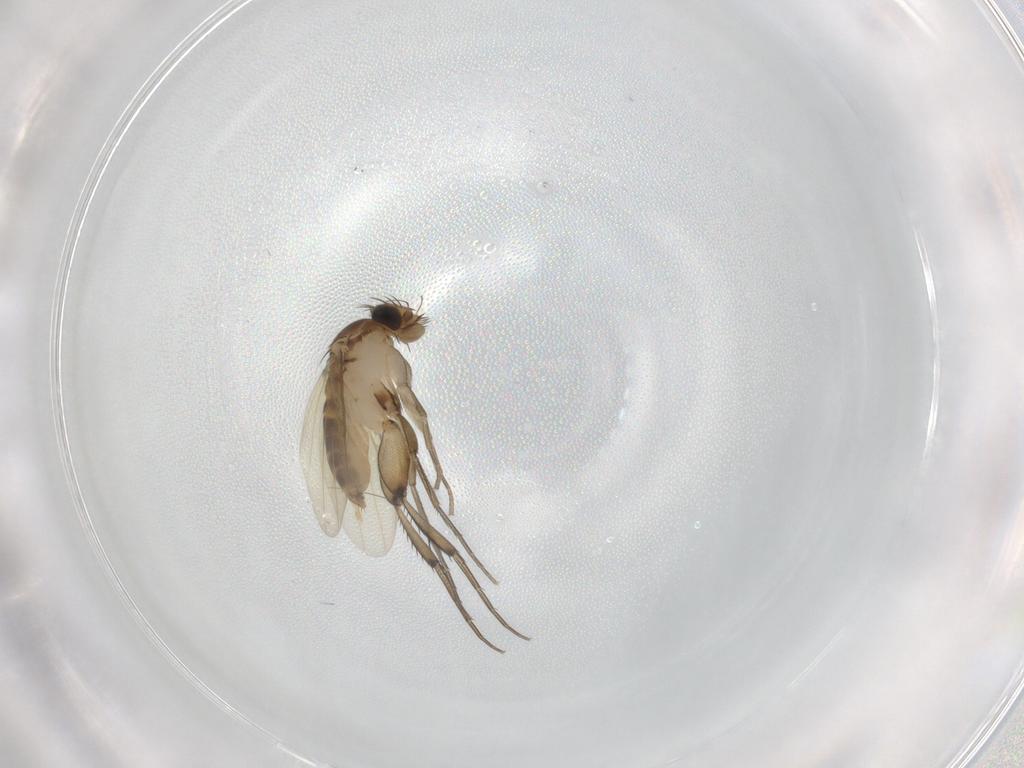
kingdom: Animalia
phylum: Arthropoda
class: Insecta
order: Diptera
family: Phoridae
